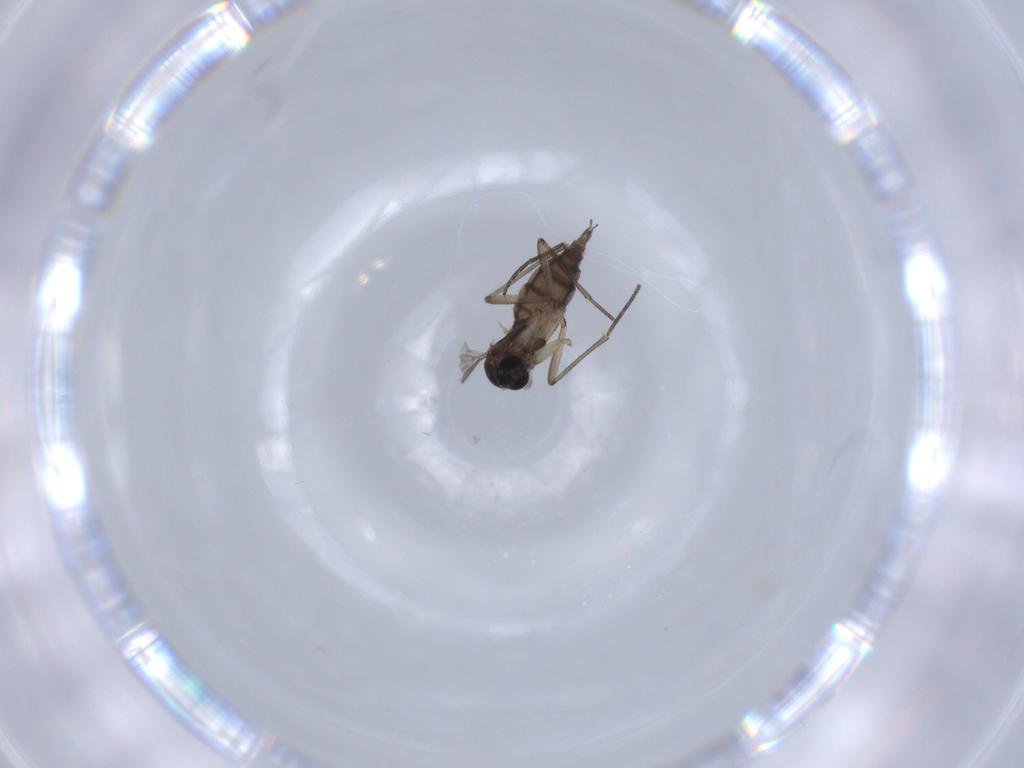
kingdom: Animalia
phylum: Arthropoda
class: Insecta
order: Diptera
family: Sciaridae
